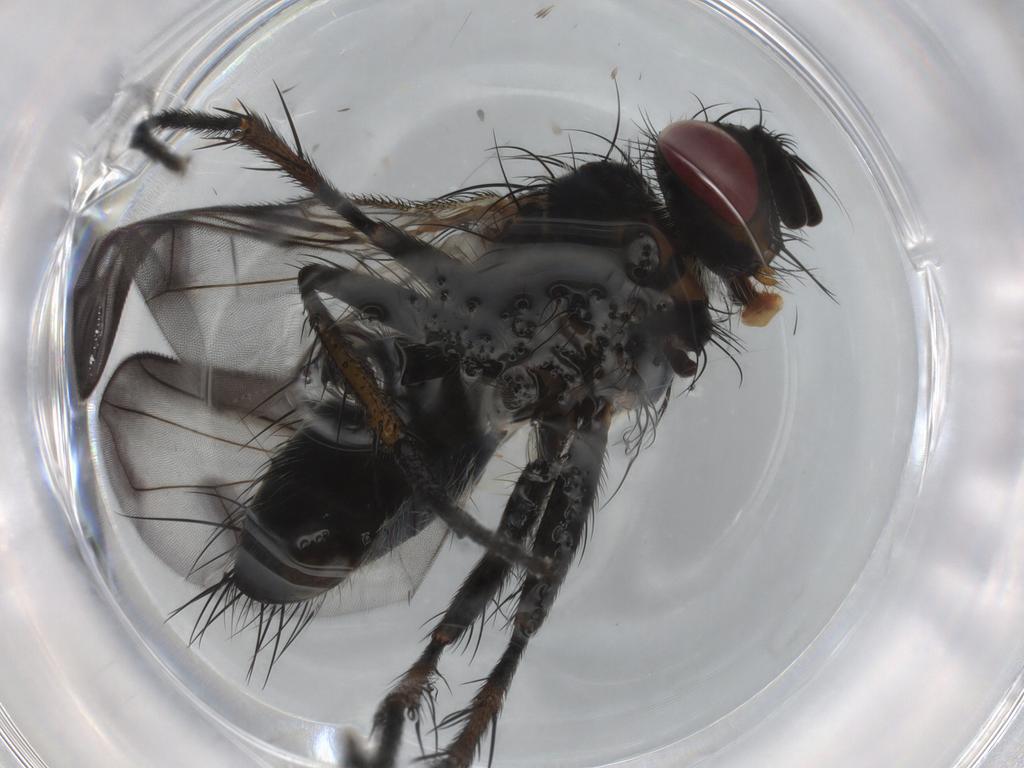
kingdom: Animalia
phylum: Arthropoda
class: Insecta
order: Diptera
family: Tachinidae
